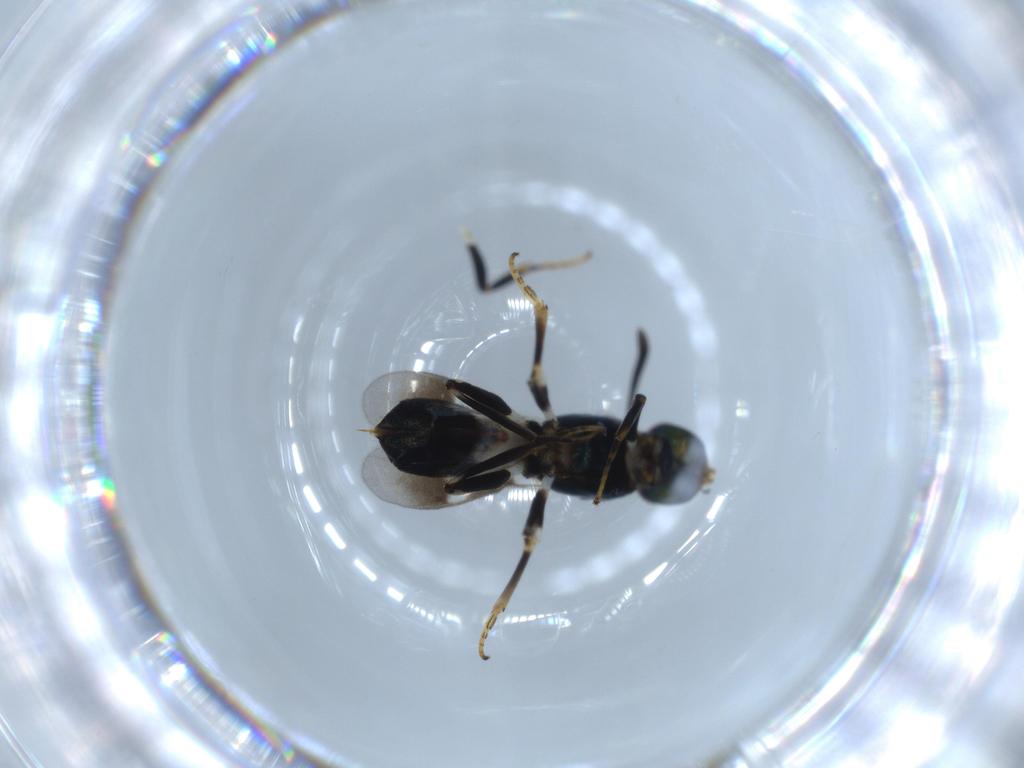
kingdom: Animalia
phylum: Arthropoda
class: Insecta
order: Hymenoptera
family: Eupelmidae
